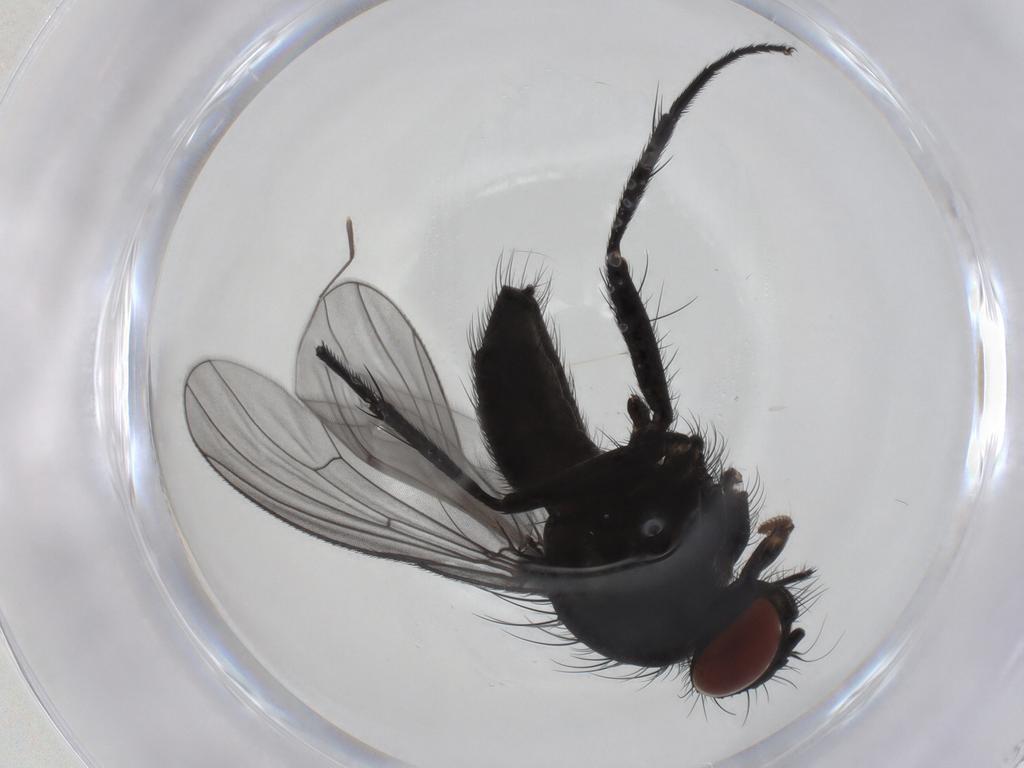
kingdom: Animalia
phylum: Arthropoda
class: Insecta
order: Diptera
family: Muscidae
